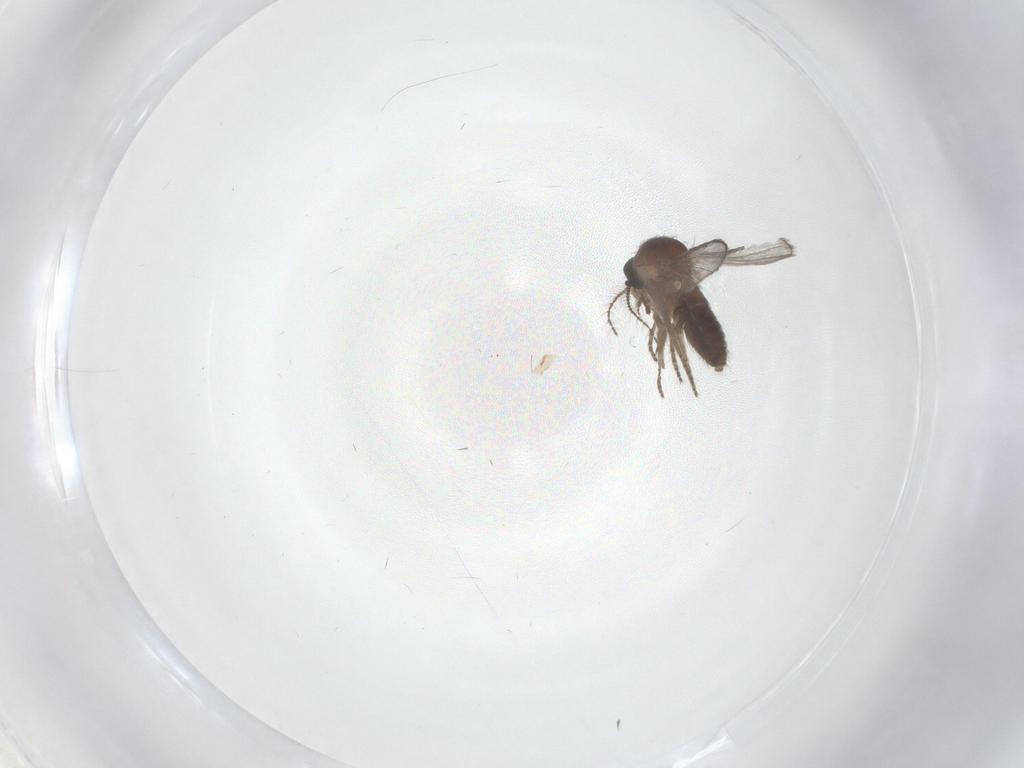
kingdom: Animalia
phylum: Arthropoda
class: Insecta
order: Diptera
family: Ceratopogonidae
